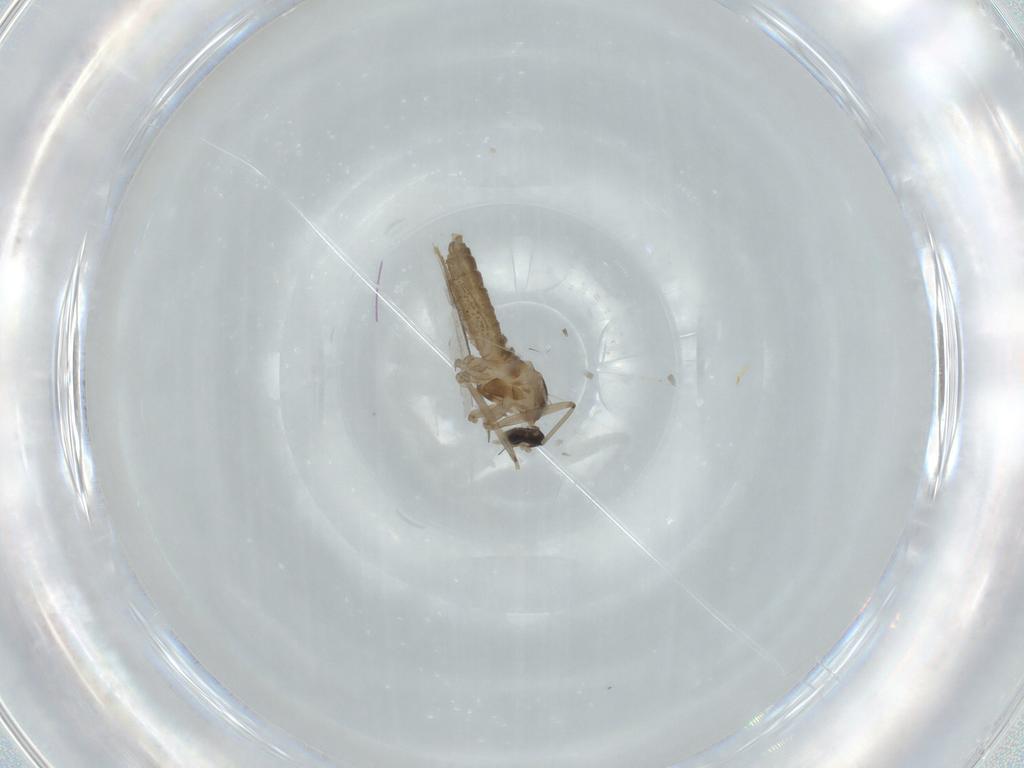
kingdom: Animalia
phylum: Arthropoda
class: Insecta
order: Diptera
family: Cecidomyiidae
